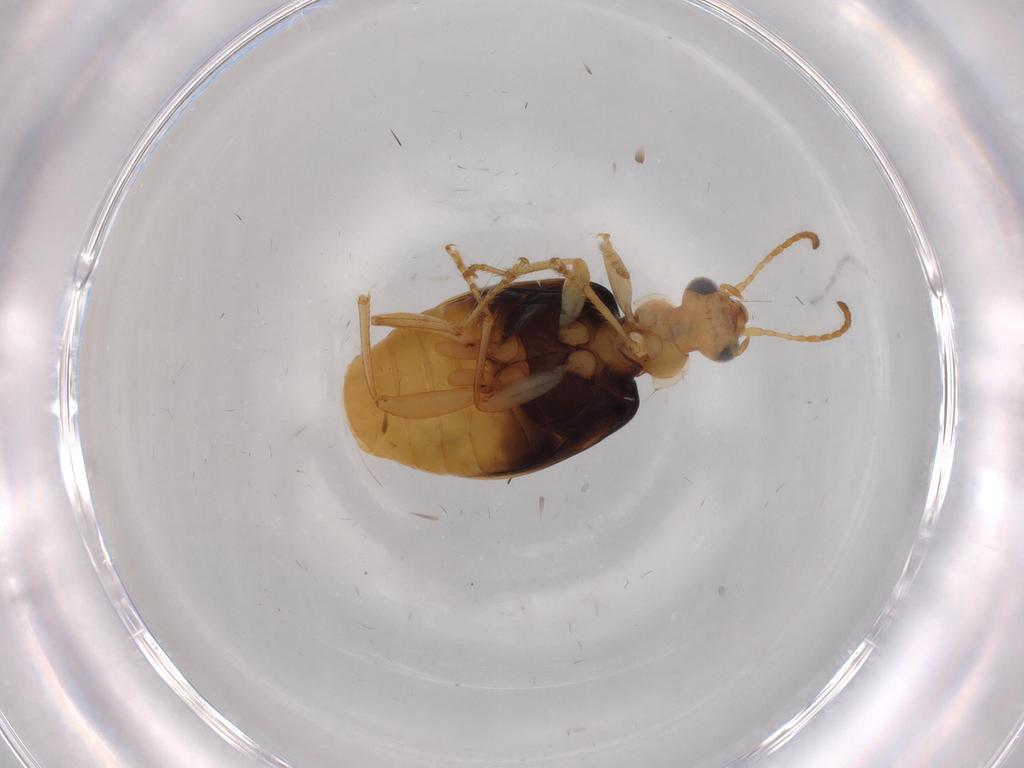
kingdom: Animalia
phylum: Arthropoda
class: Insecta
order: Coleoptera
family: Carabidae
